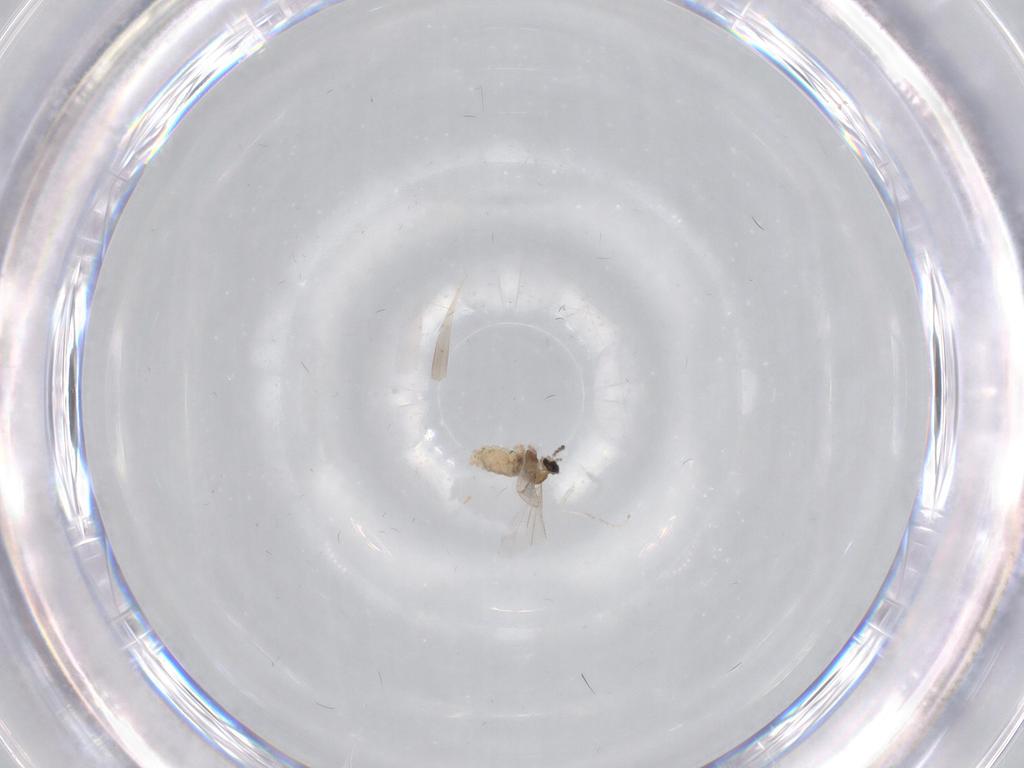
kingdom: Animalia
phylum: Arthropoda
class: Insecta
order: Diptera
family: Cecidomyiidae
